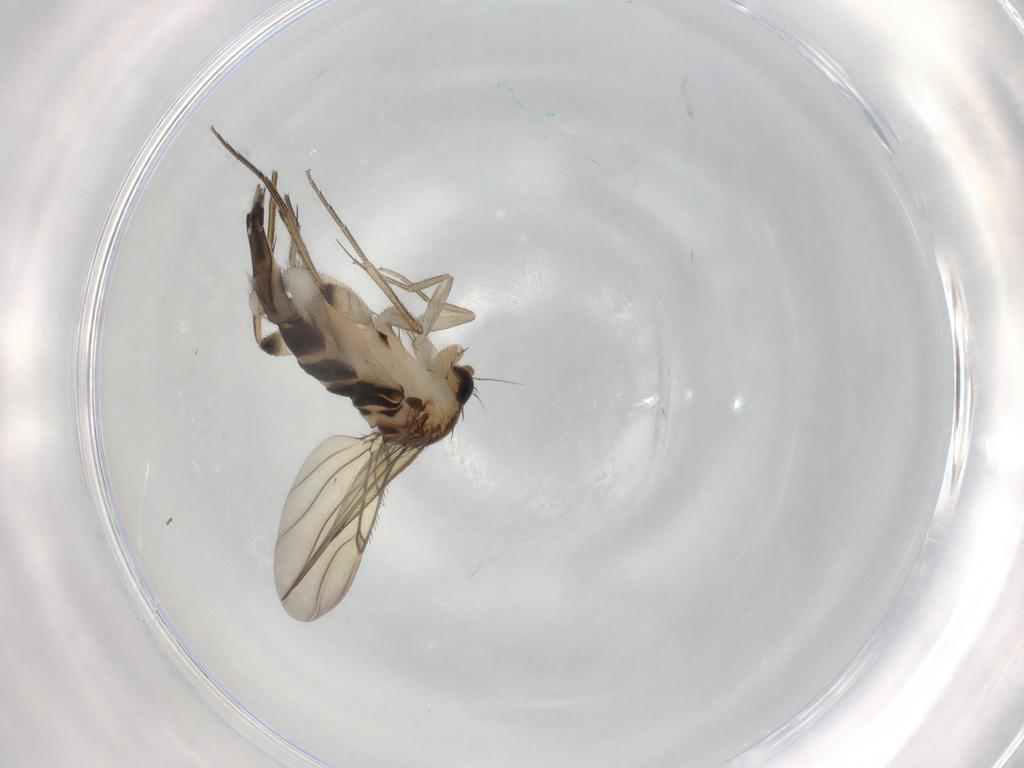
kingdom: Animalia
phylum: Arthropoda
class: Insecta
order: Diptera
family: Phoridae
